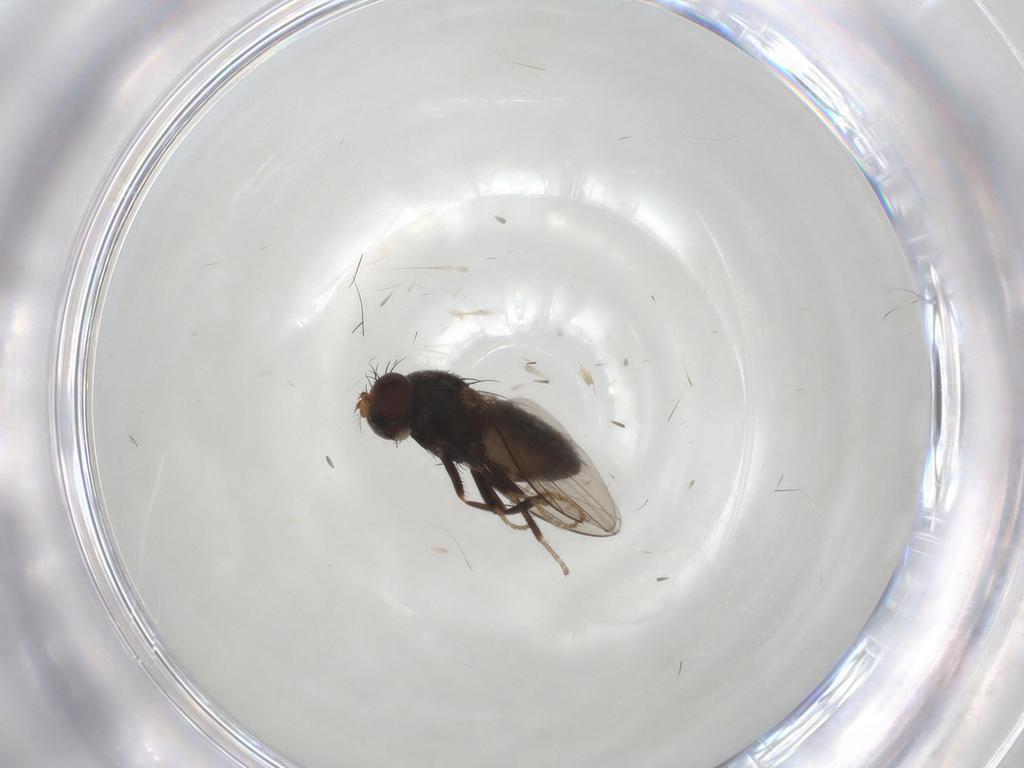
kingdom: Animalia
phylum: Arthropoda
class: Insecta
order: Diptera
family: Ephydridae
